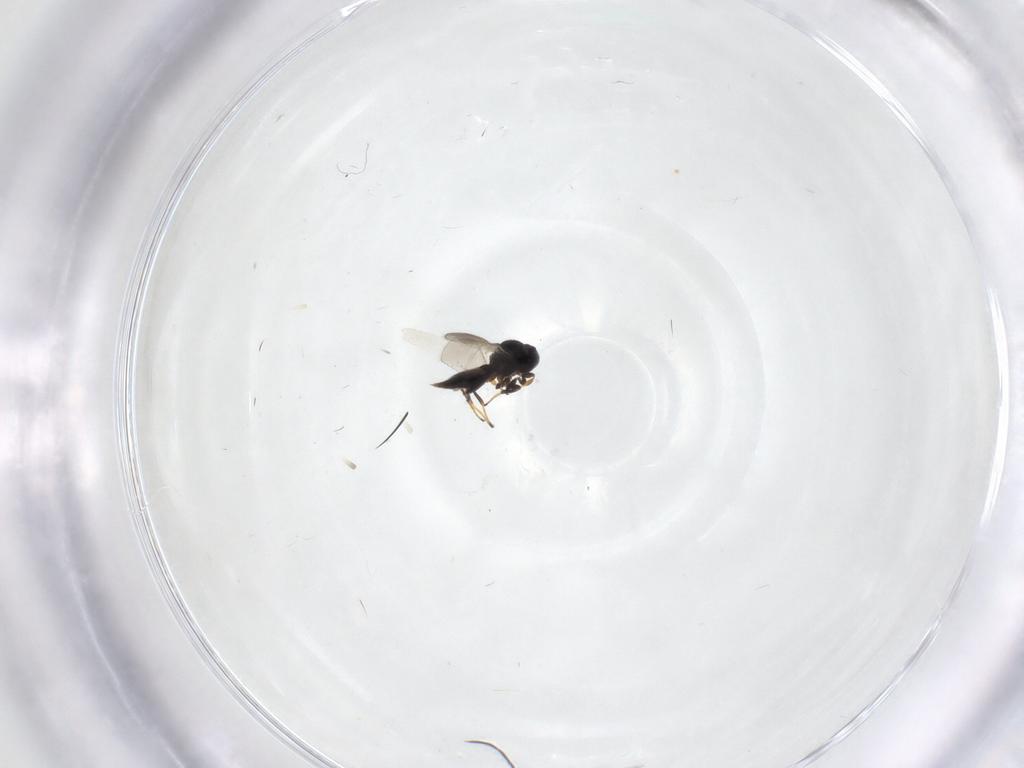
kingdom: Animalia
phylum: Arthropoda
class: Insecta
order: Hymenoptera
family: Platygastridae
